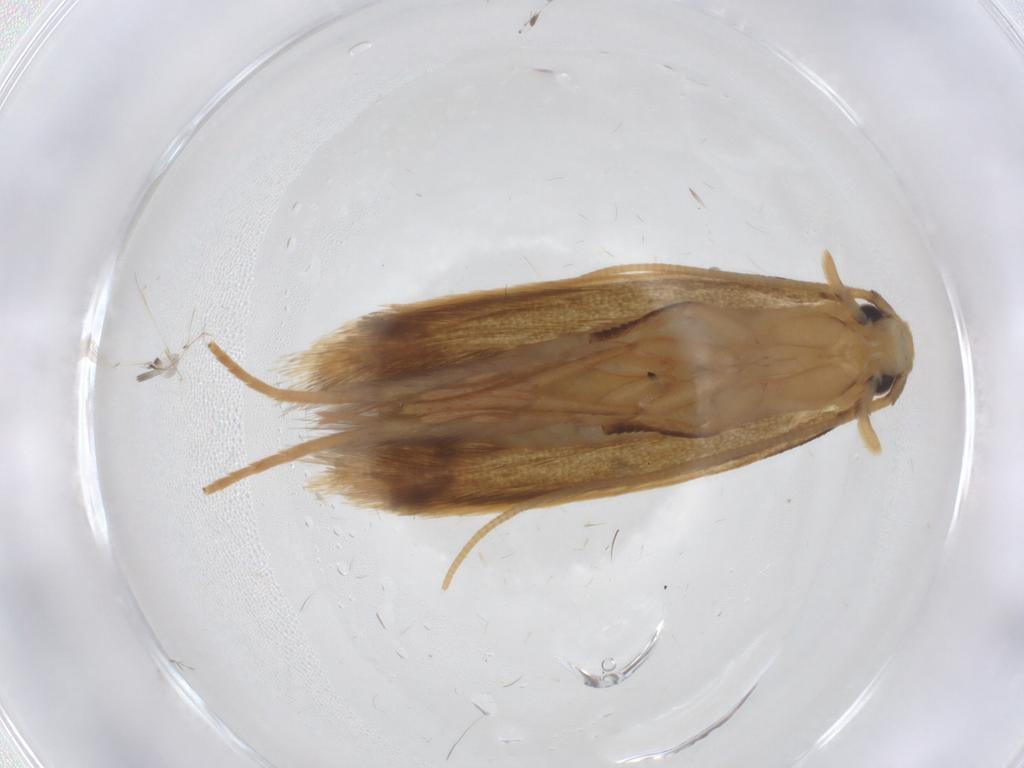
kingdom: Animalia
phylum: Arthropoda
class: Insecta
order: Lepidoptera
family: Cosmopterigidae
